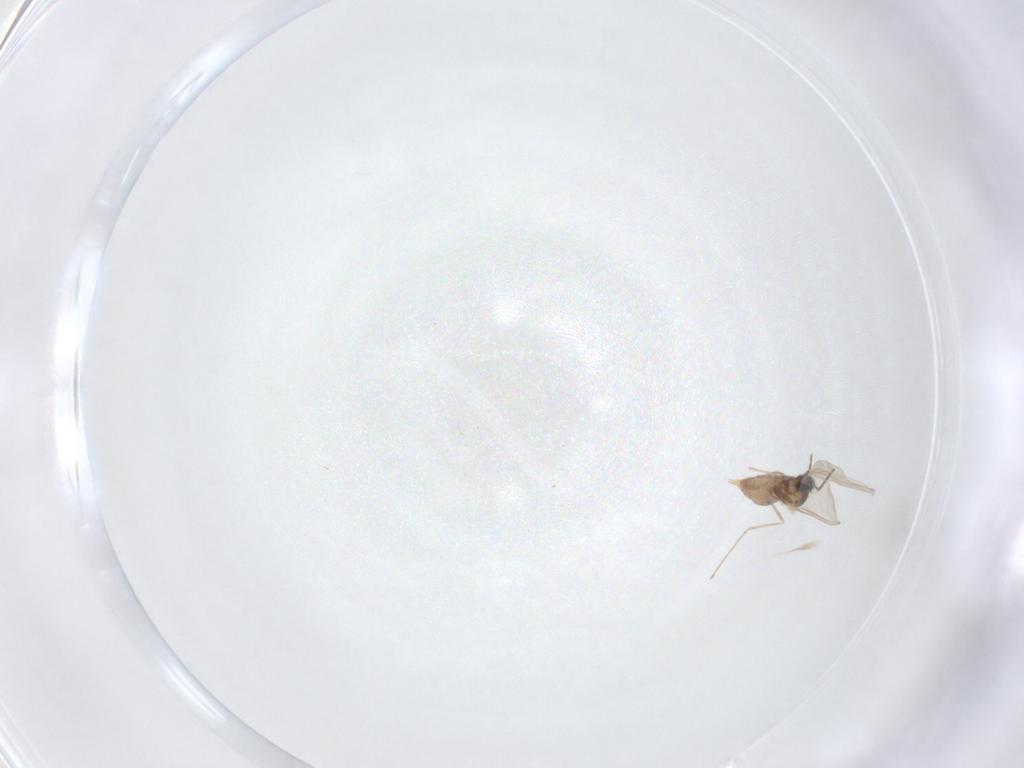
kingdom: Animalia
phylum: Arthropoda
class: Insecta
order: Diptera
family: Cecidomyiidae
